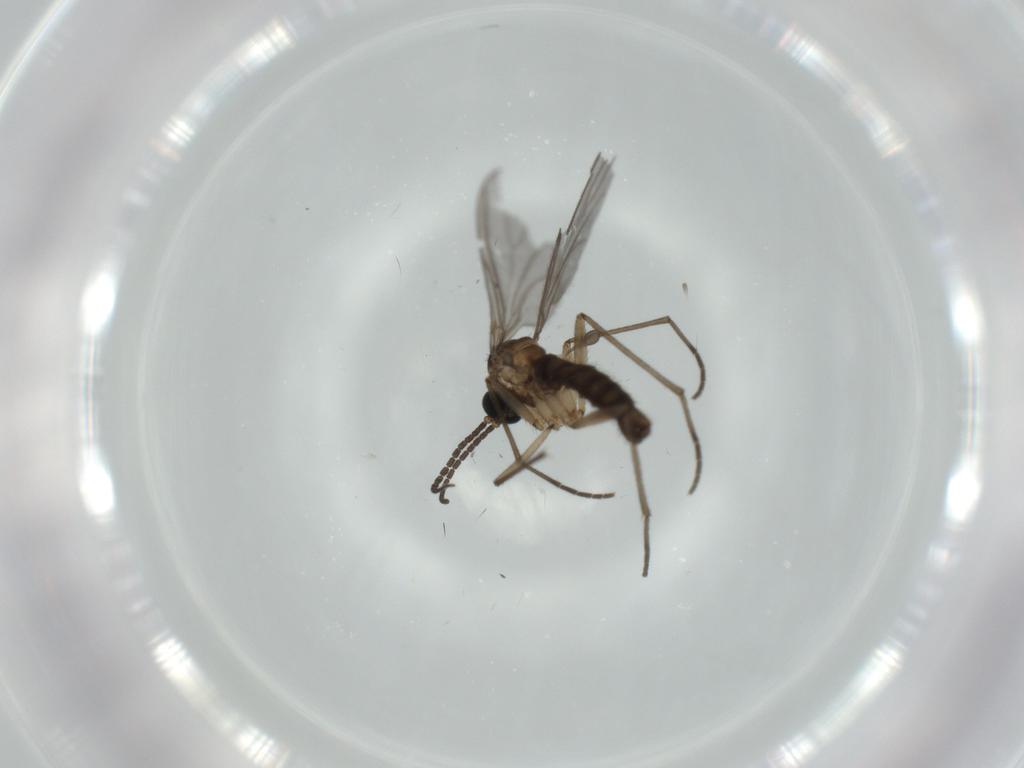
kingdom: Animalia
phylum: Arthropoda
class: Insecta
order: Diptera
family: Sciaridae
